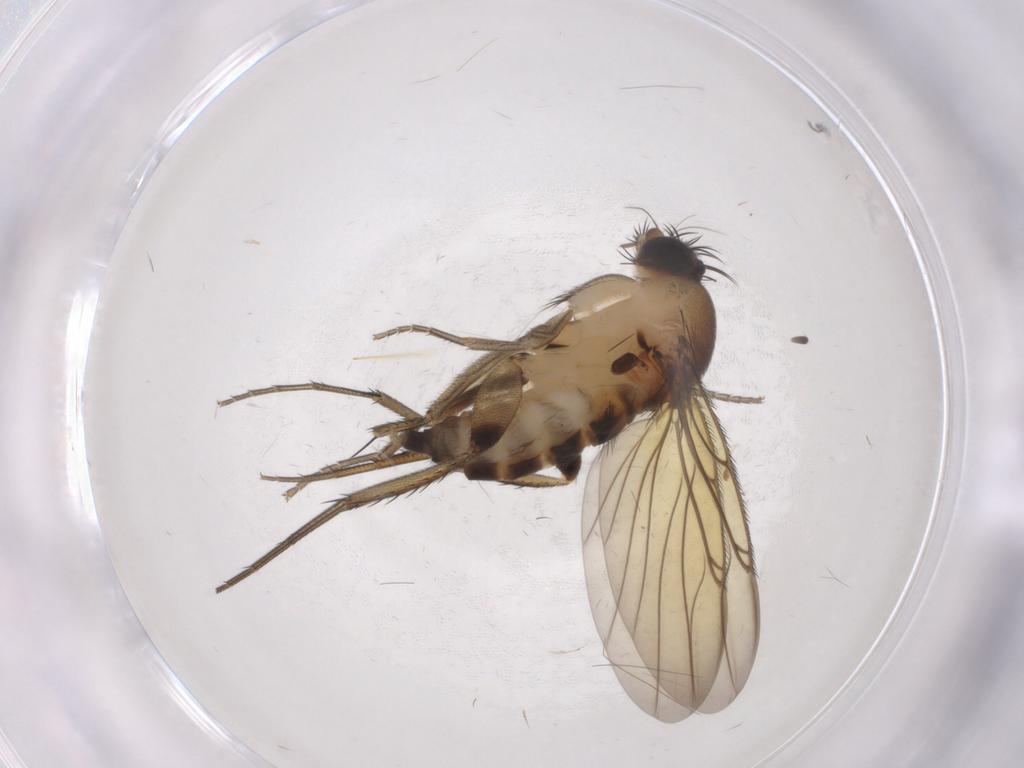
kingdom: Animalia
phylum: Arthropoda
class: Insecta
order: Diptera
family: Phoridae
